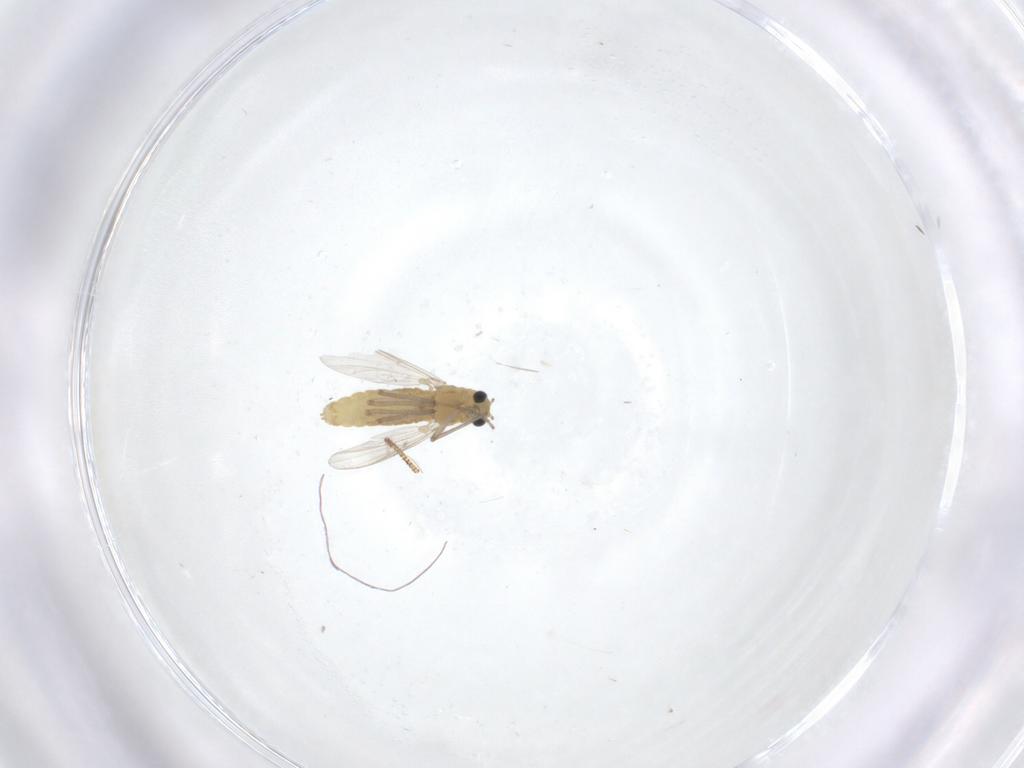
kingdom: Animalia
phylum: Arthropoda
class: Insecta
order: Diptera
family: Chironomidae
